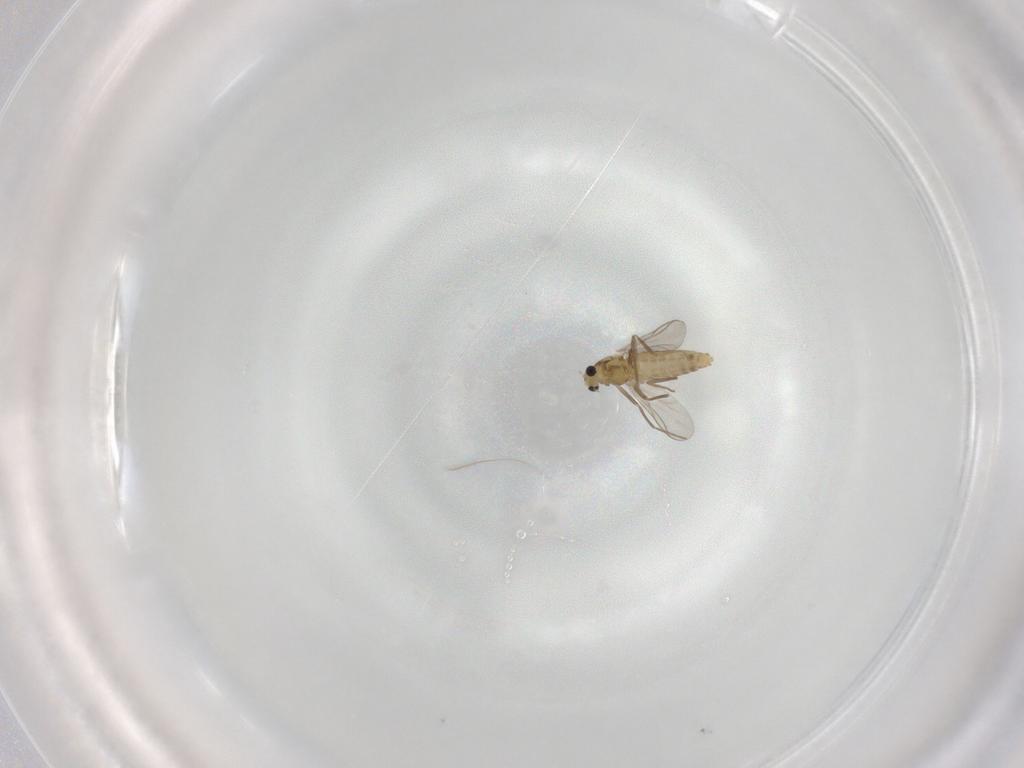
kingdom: Animalia
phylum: Arthropoda
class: Insecta
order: Diptera
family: Chironomidae
